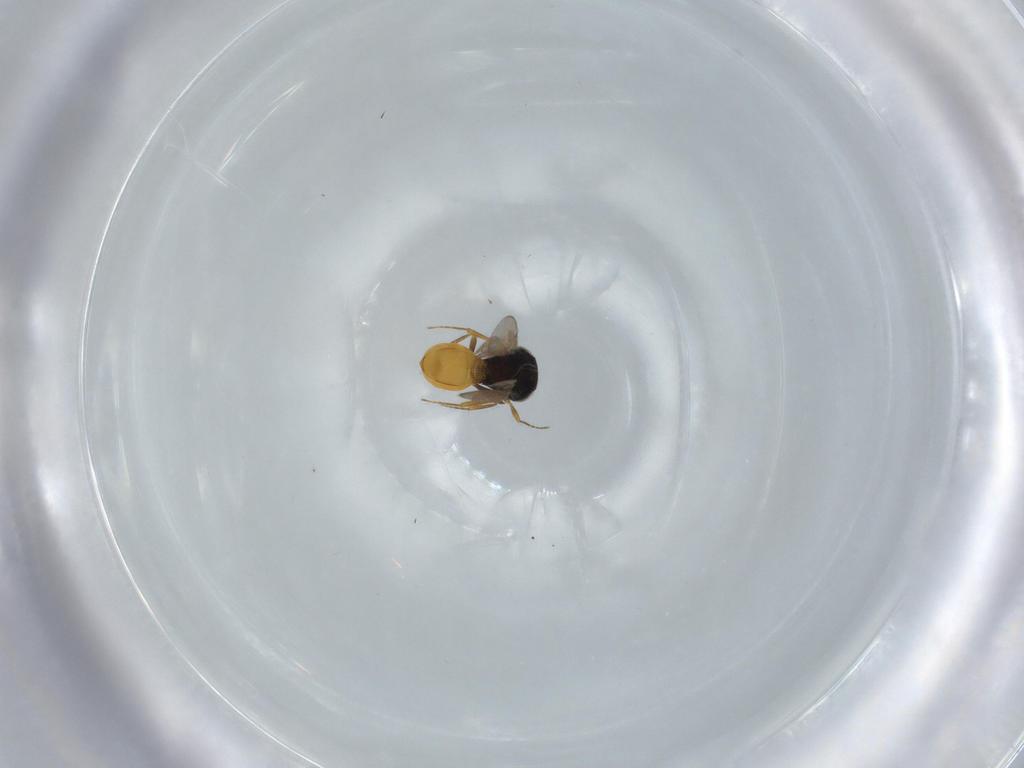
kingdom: Animalia
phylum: Arthropoda
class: Insecta
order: Hymenoptera
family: Scelionidae
